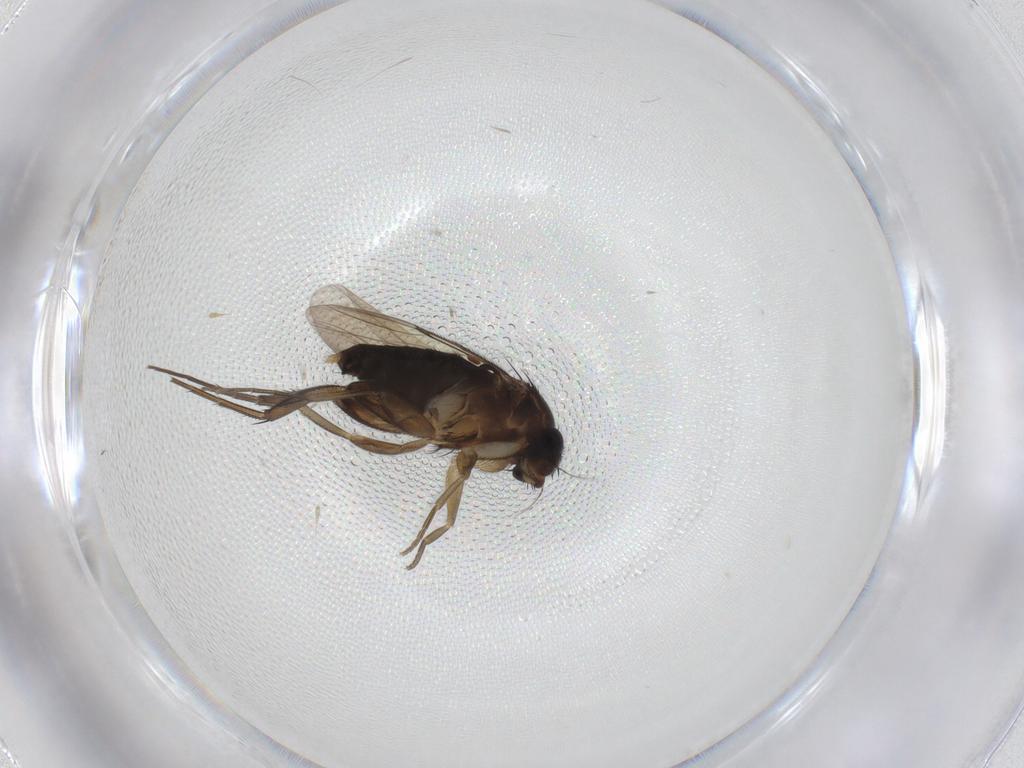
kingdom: Animalia
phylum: Arthropoda
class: Insecta
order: Diptera
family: Sciaridae
